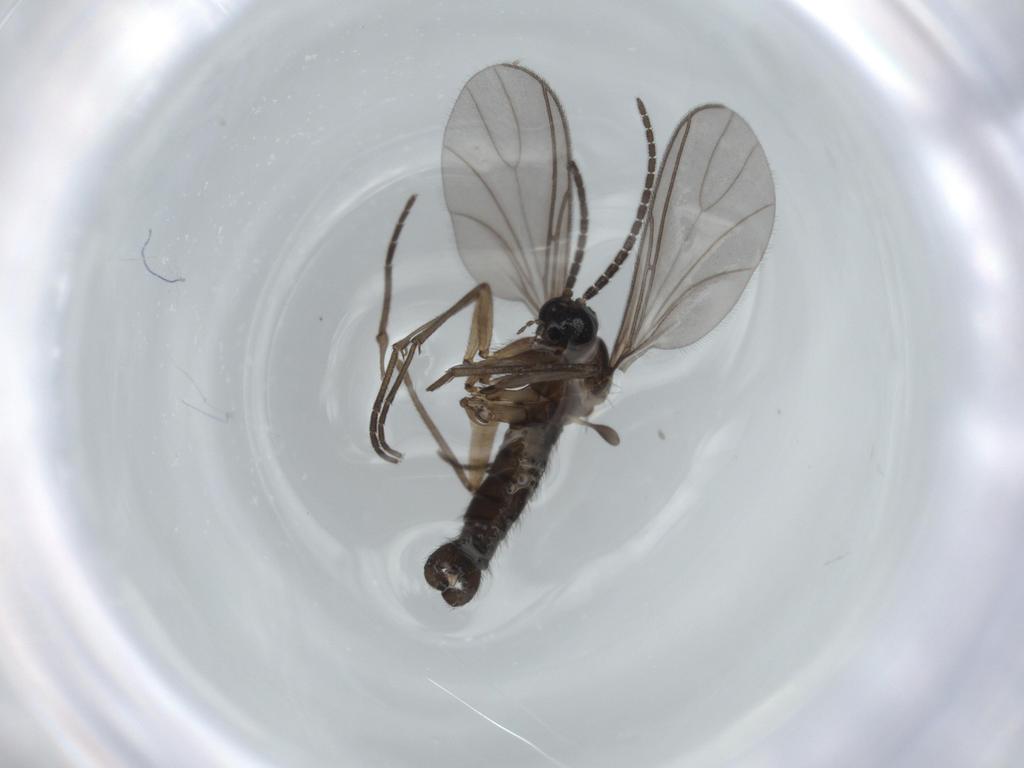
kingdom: Animalia
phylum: Arthropoda
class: Insecta
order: Diptera
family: Sciaridae
